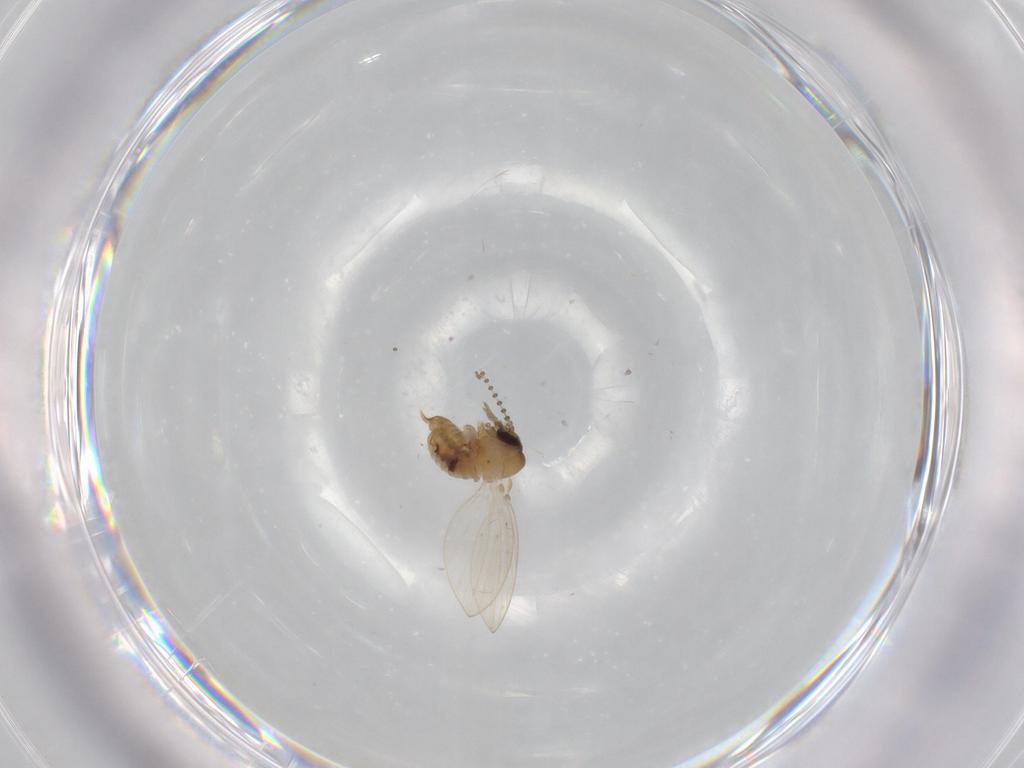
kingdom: Animalia
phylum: Arthropoda
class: Insecta
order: Diptera
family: Psychodidae
